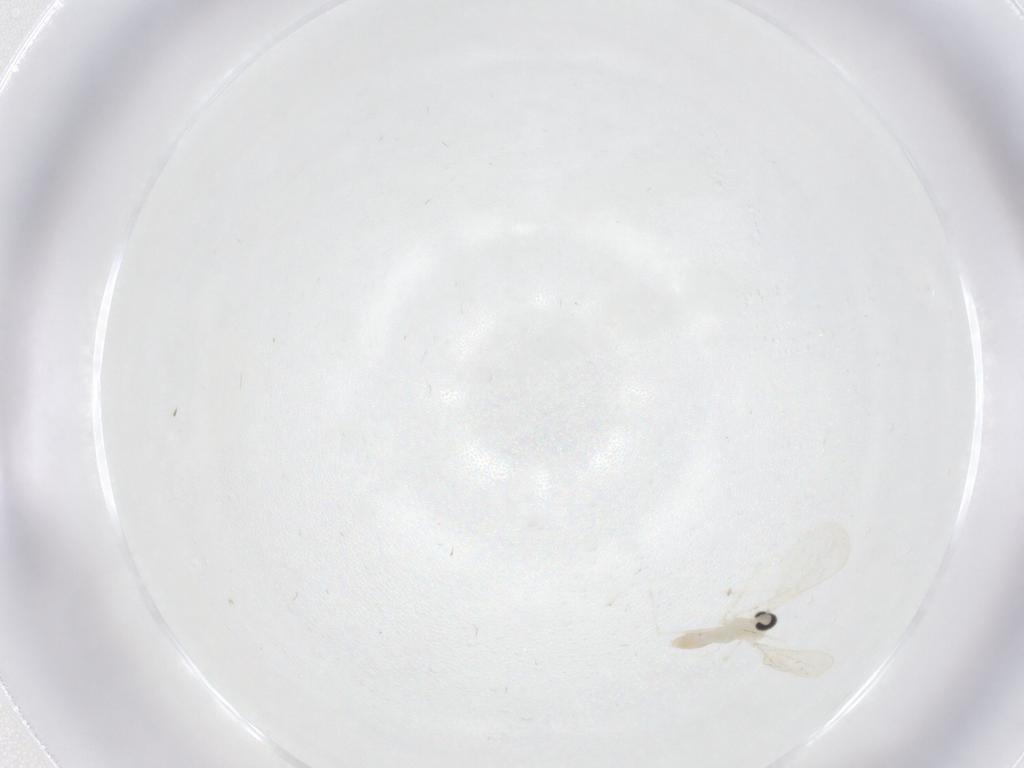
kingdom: Animalia
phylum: Arthropoda
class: Insecta
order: Diptera
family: Cecidomyiidae
